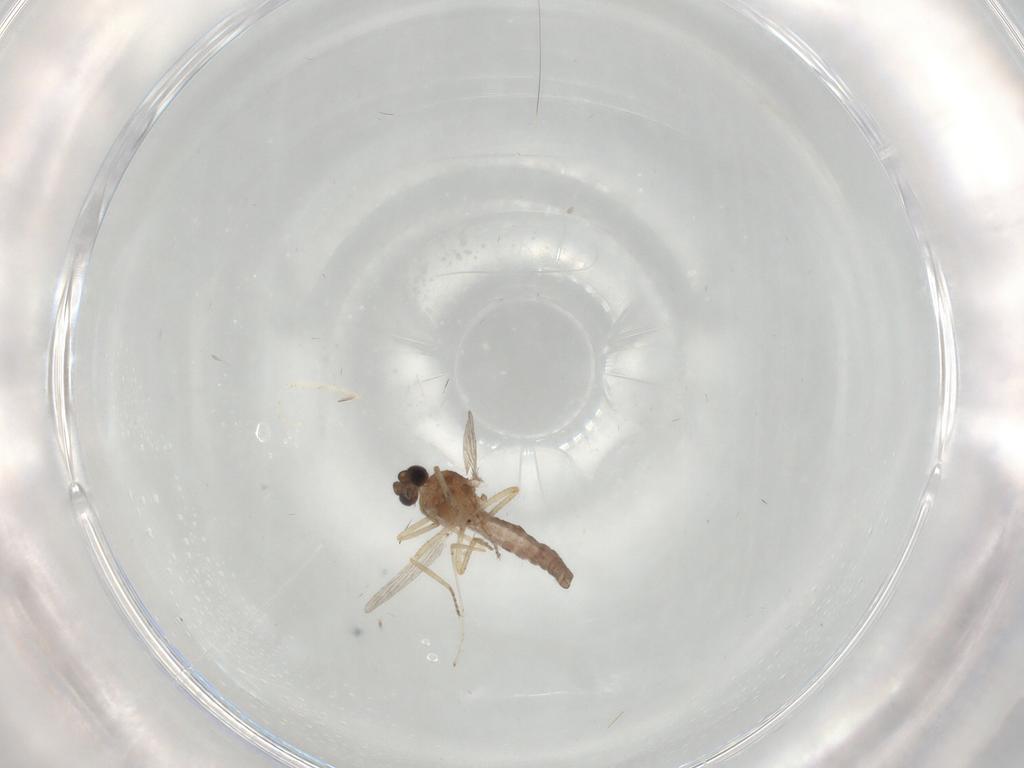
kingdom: Animalia
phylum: Arthropoda
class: Insecta
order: Diptera
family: Ceratopogonidae
